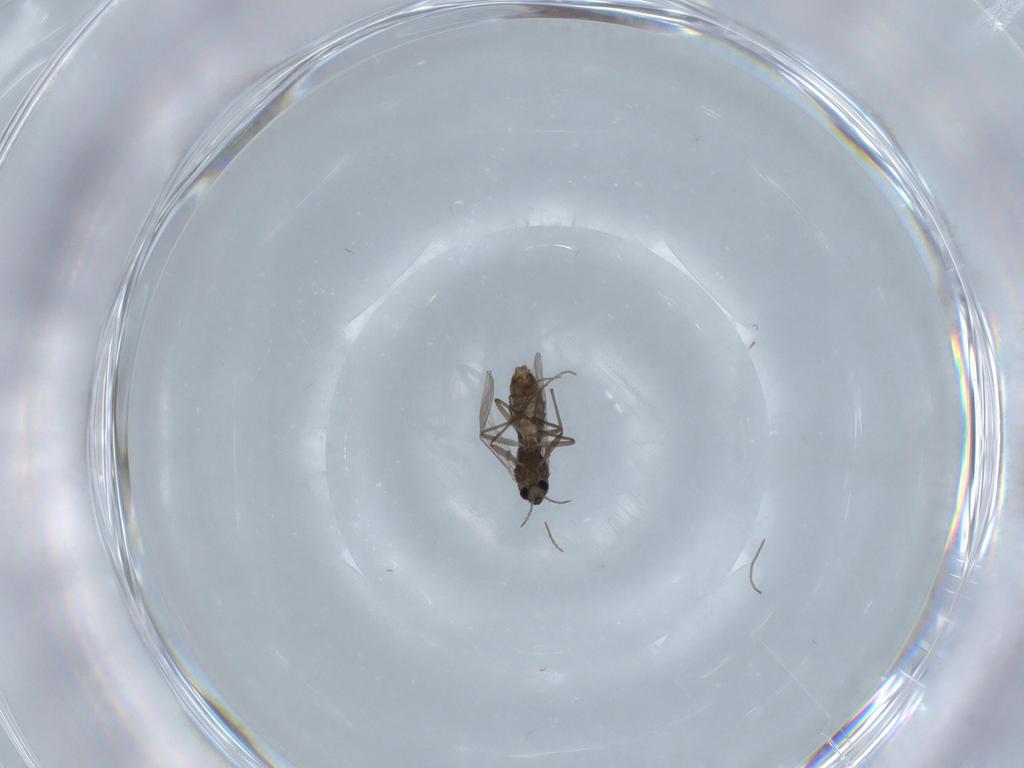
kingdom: Animalia
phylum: Arthropoda
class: Insecta
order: Diptera
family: Chironomidae
